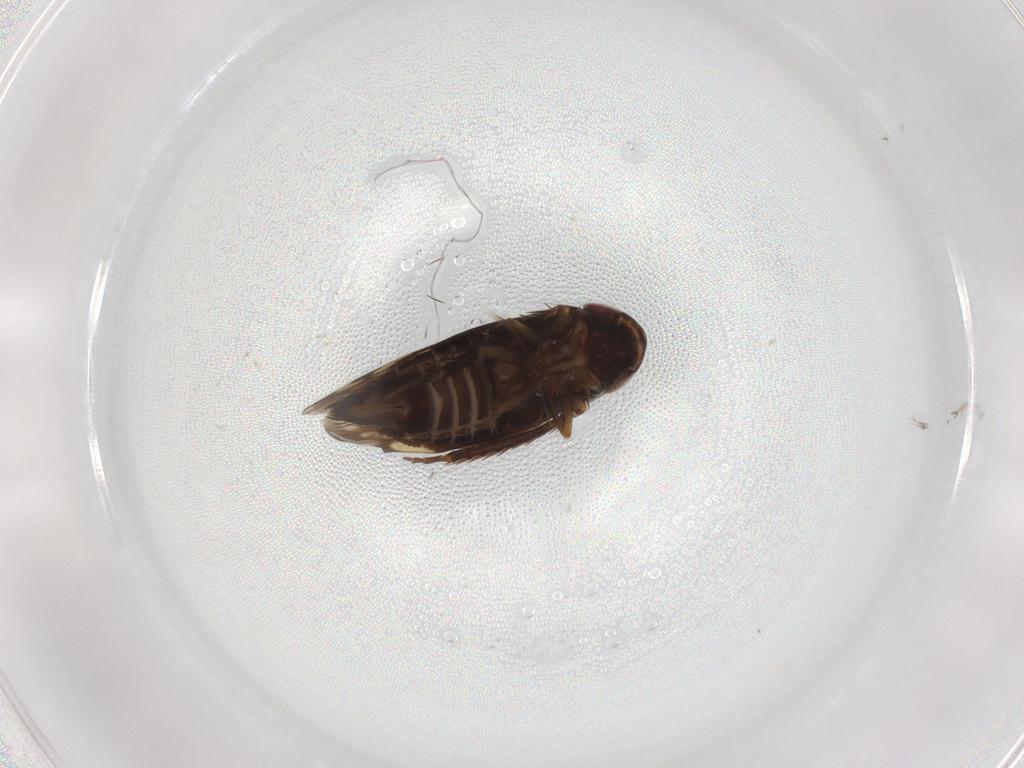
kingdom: Animalia
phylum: Arthropoda
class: Insecta
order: Hemiptera
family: Cicadellidae
